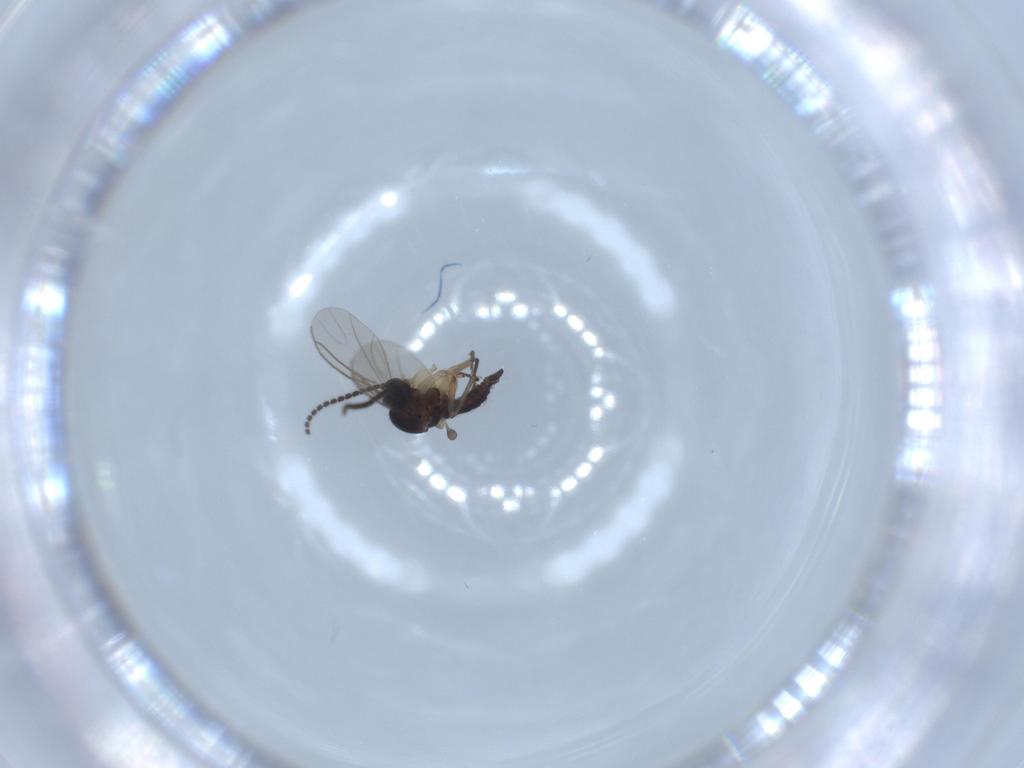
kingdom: Animalia
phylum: Arthropoda
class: Insecta
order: Diptera
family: Sciaridae
